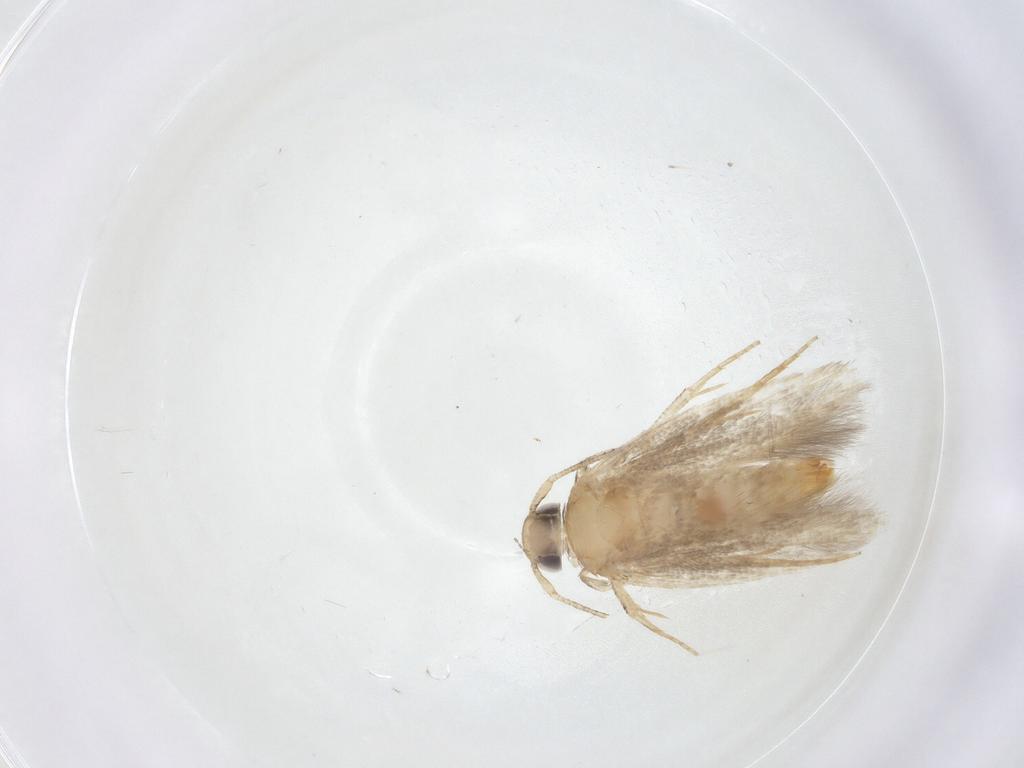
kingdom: Animalia
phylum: Arthropoda
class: Insecta
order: Lepidoptera
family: Gelechiidae
